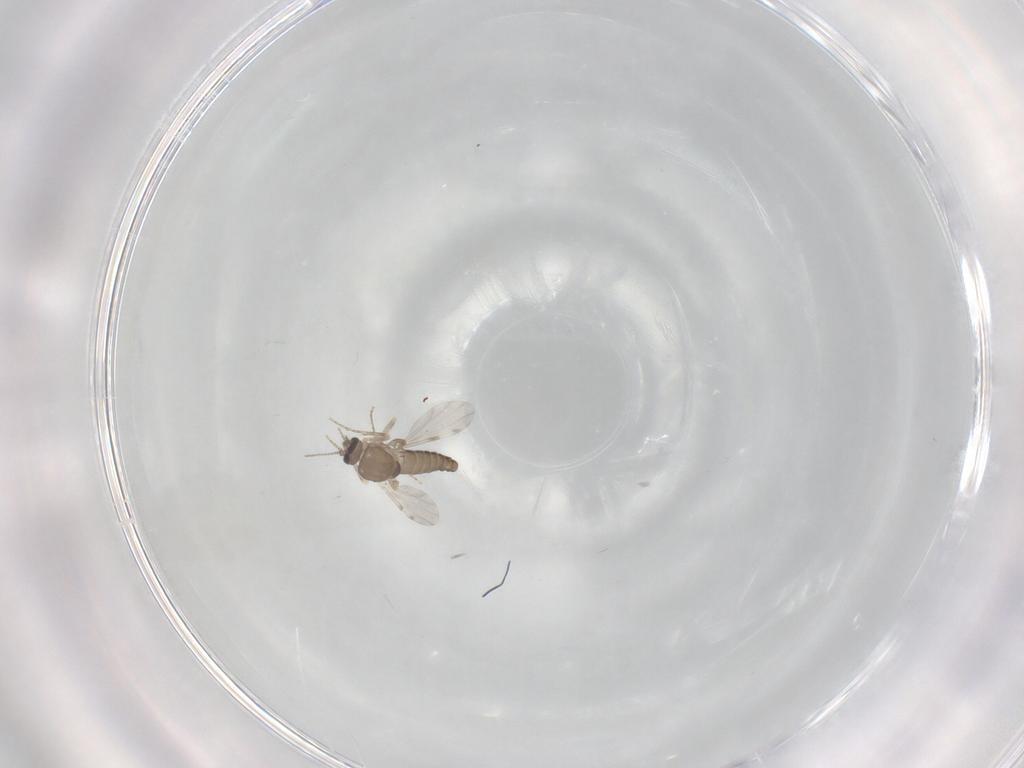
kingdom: Animalia
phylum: Arthropoda
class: Insecta
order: Diptera
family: Ceratopogonidae
